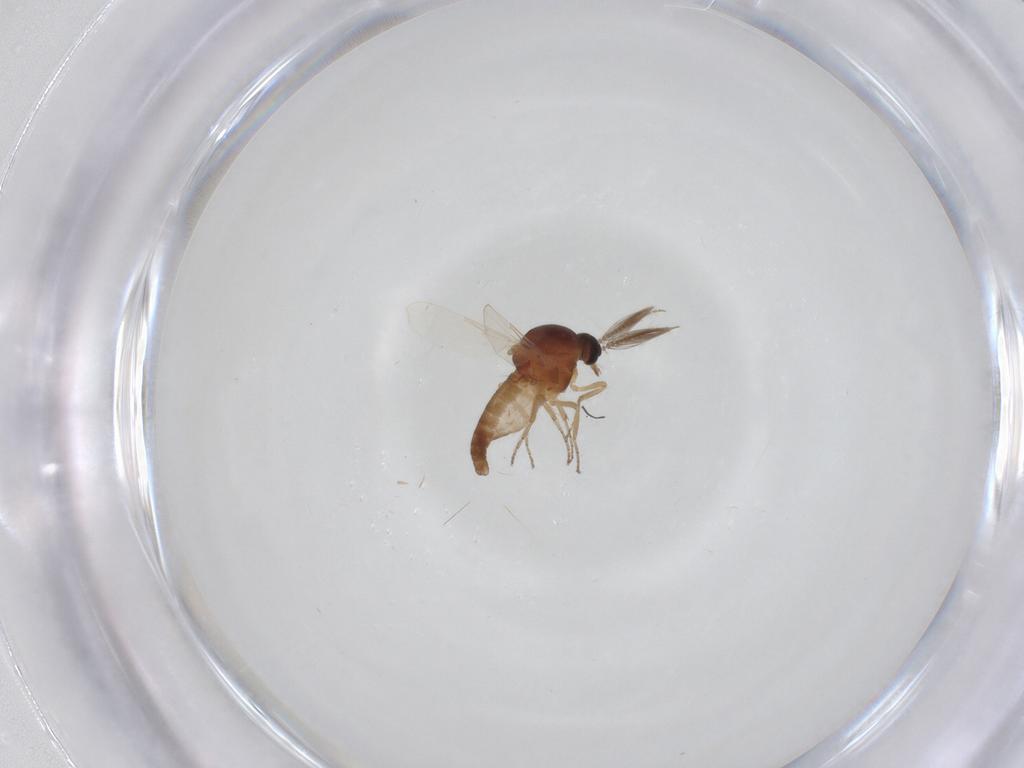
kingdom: Animalia
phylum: Arthropoda
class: Insecta
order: Diptera
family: Ceratopogonidae
